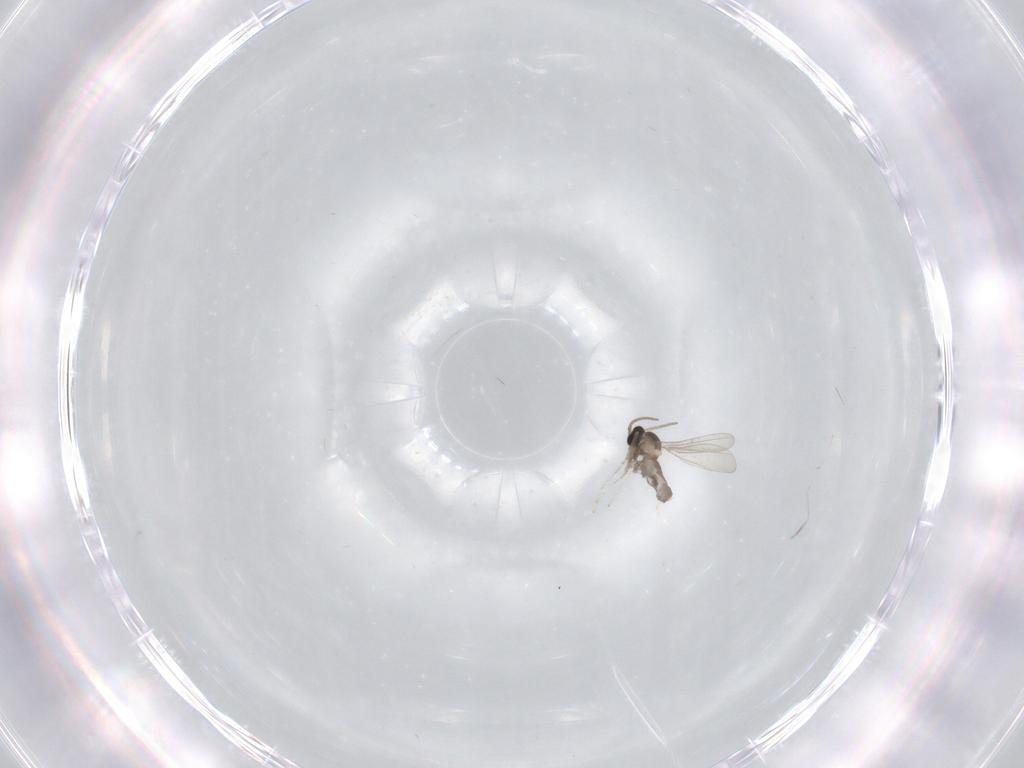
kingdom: Animalia
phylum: Arthropoda
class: Insecta
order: Diptera
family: Cecidomyiidae
